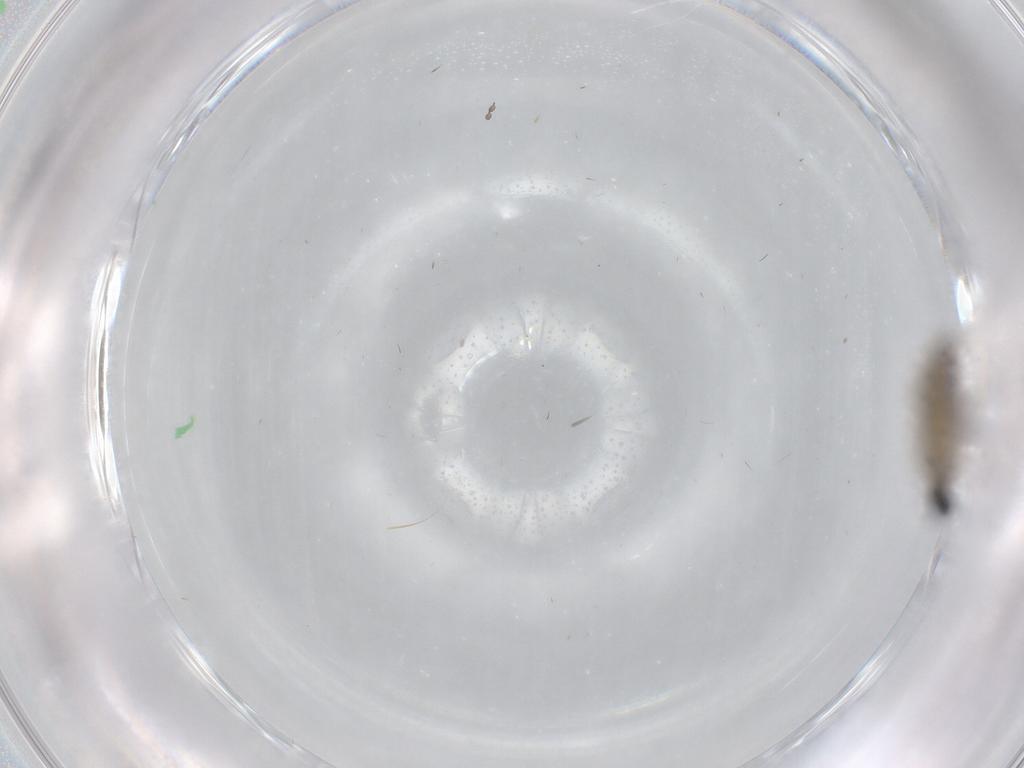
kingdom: Animalia
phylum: Arthropoda
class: Insecta
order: Diptera
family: Cecidomyiidae
